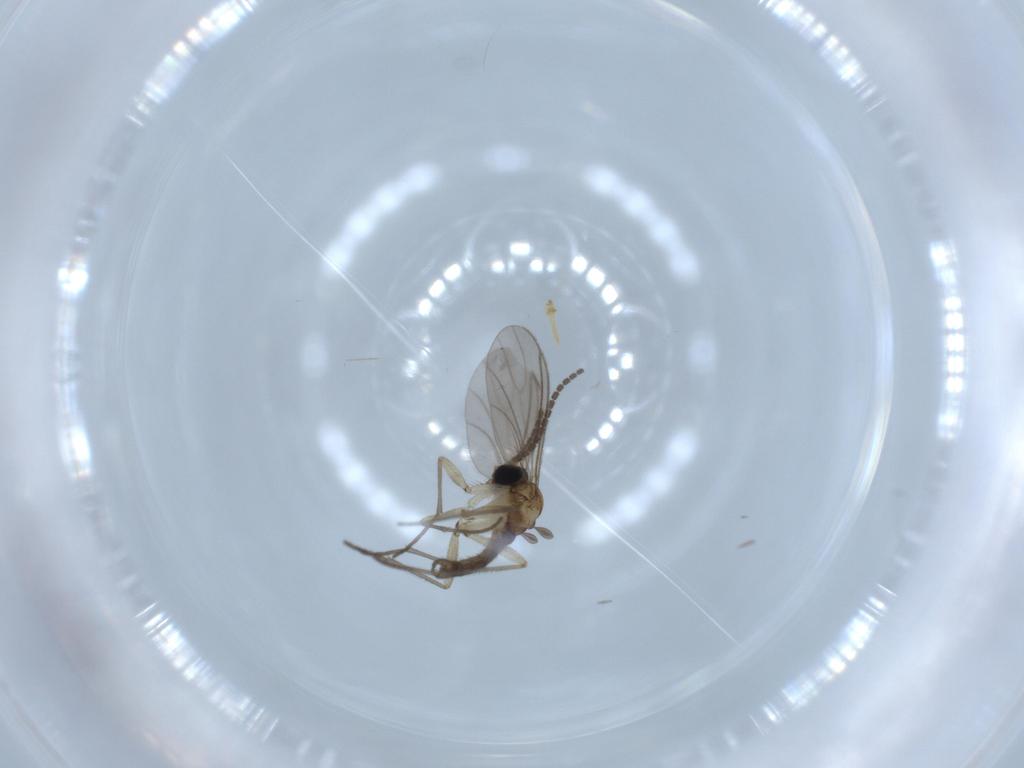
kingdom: Animalia
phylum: Arthropoda
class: Insecta
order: Diptera
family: Sciaridae
